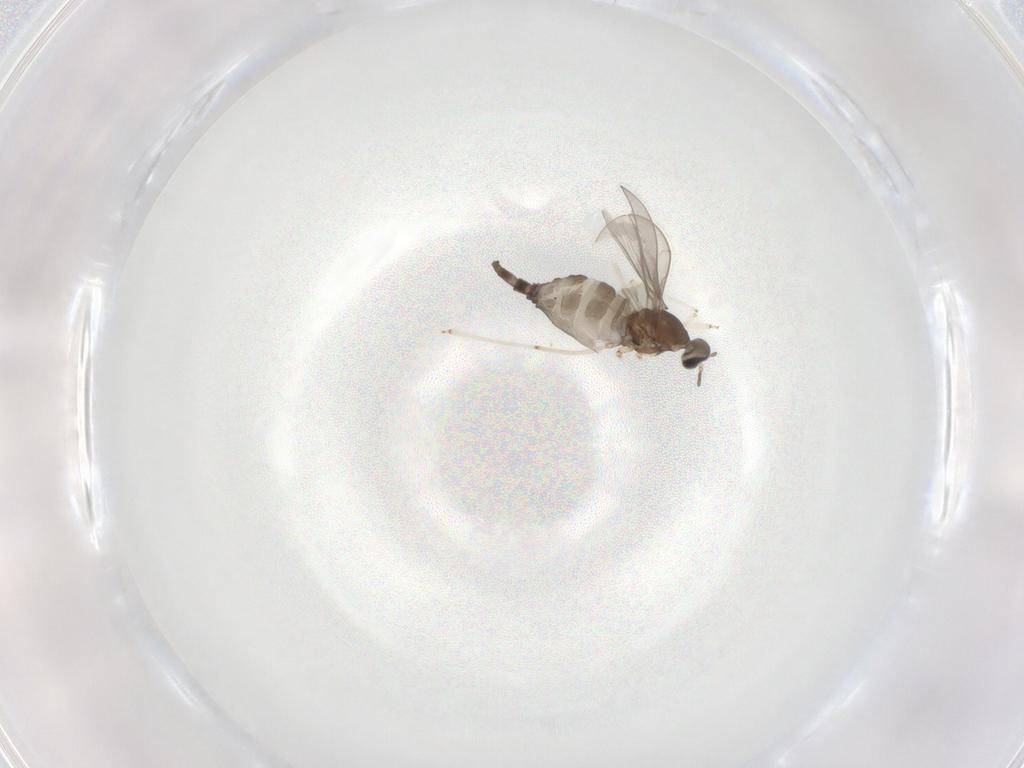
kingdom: Animalia
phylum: Arthropoda
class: Insecta
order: Diptera
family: Cecidomyiidae
